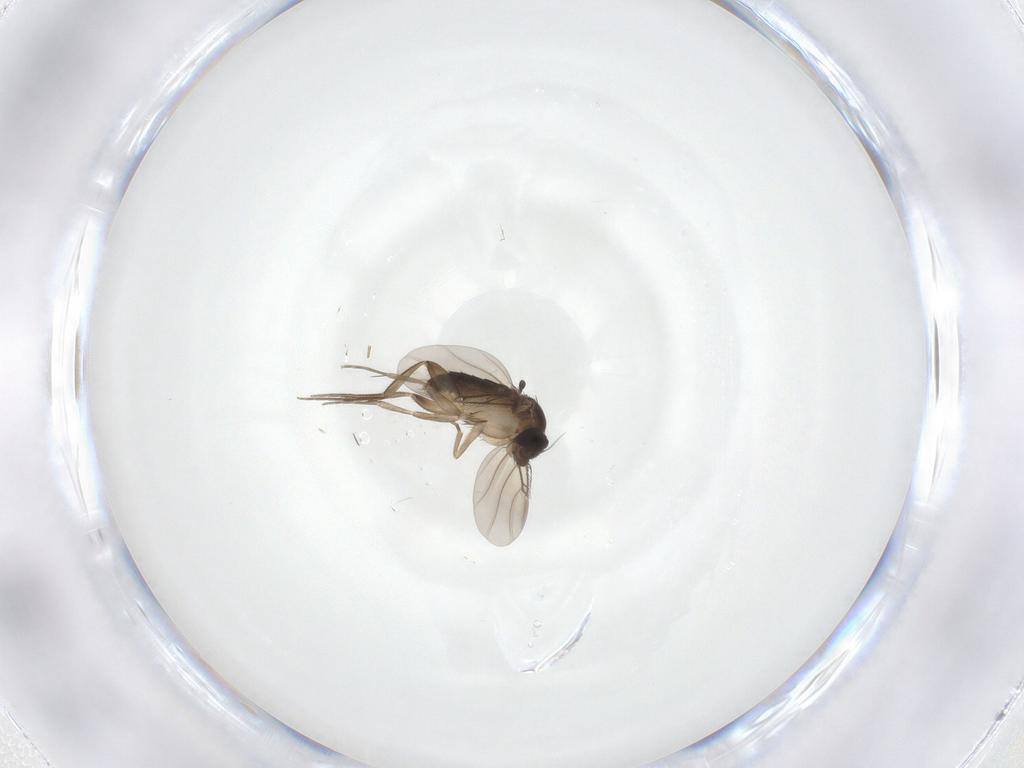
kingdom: Animalia
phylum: Arthropoda
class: Insecta
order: Diptera
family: Phoridae
